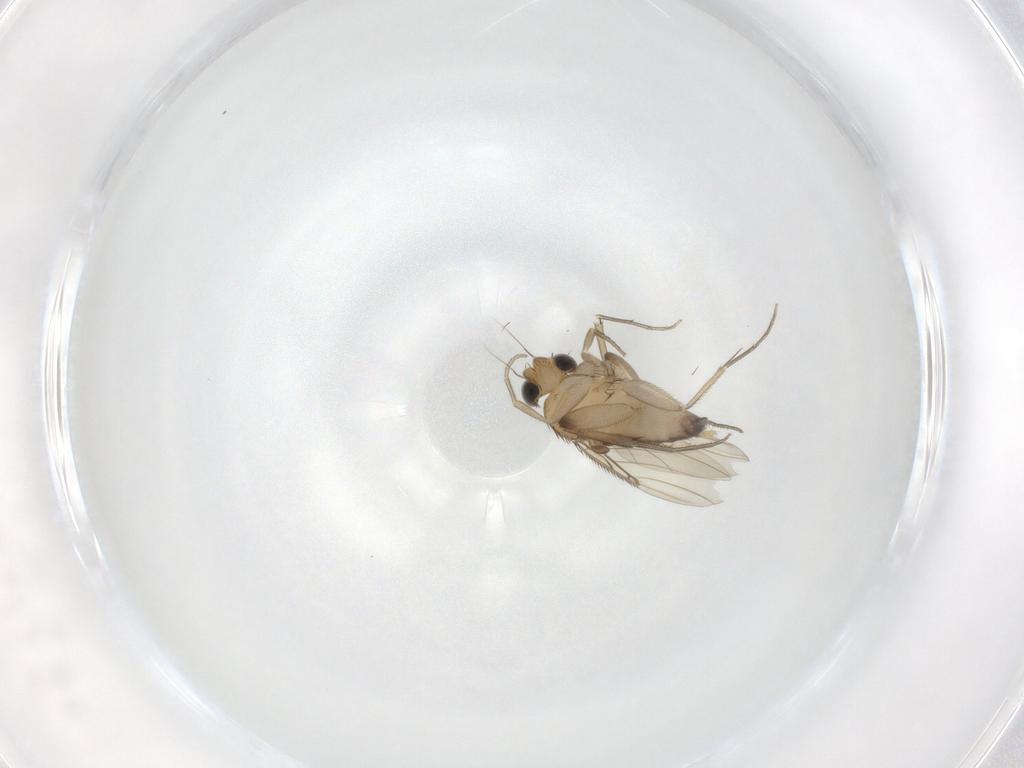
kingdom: Animalia
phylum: Arthropoda
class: Insecta
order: Diptera
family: Phoridae
